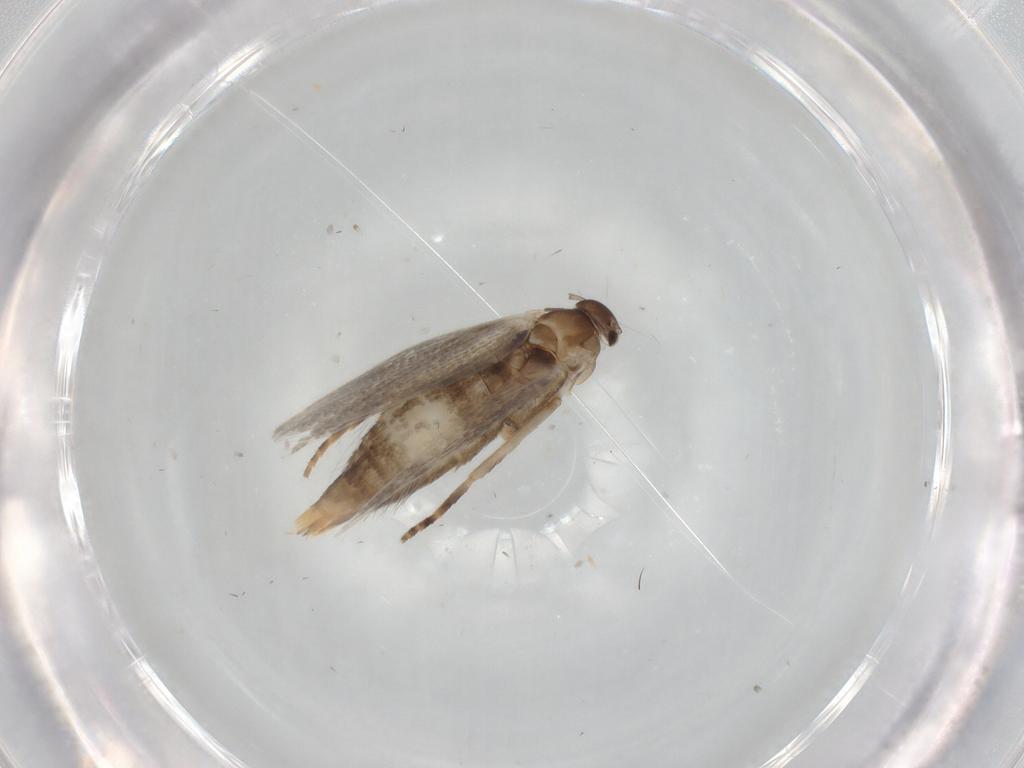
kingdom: Animalia
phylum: Arthropoda
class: Insecta
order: Lepidoptera
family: Elachistidae
